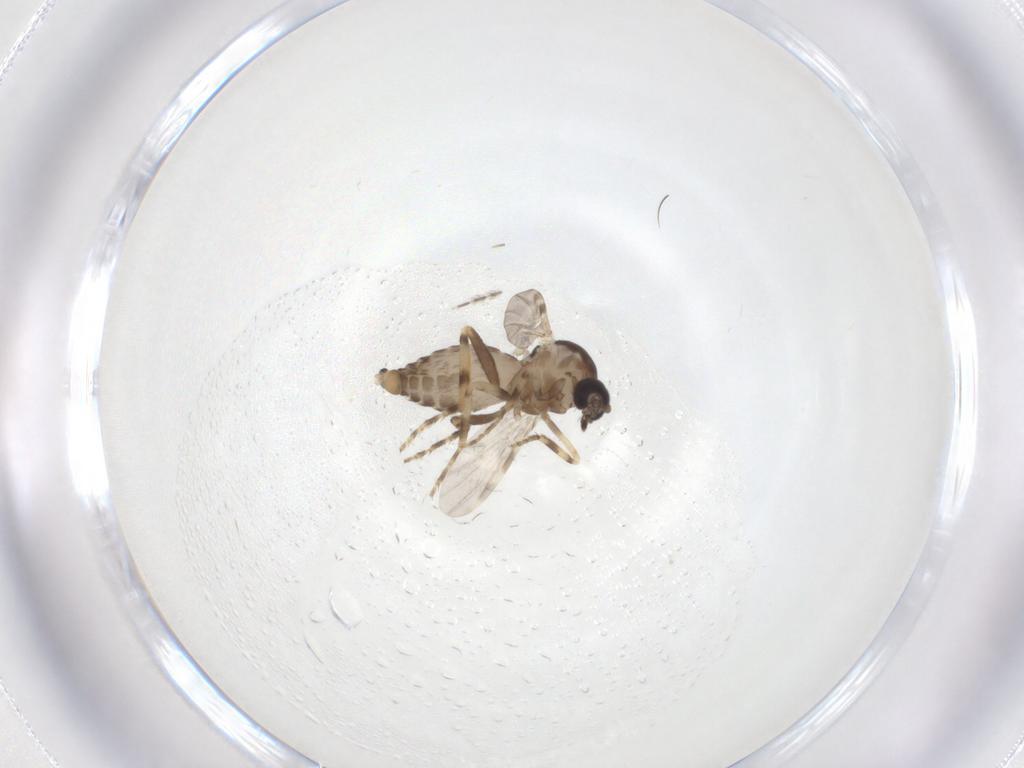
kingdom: Animalia
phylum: Arthropoda
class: Insecta
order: Diptera
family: Ceratopogonidae
